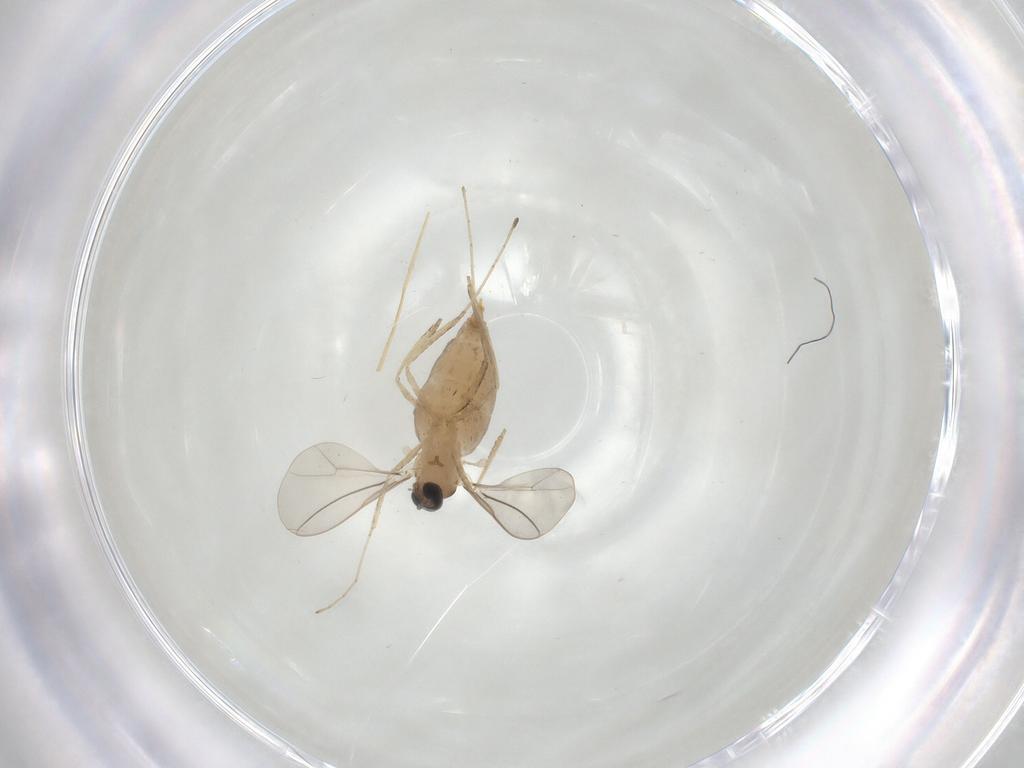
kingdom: Animalia
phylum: Arthropoda
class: Insecta
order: Diptera
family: Cecidomyiidae
